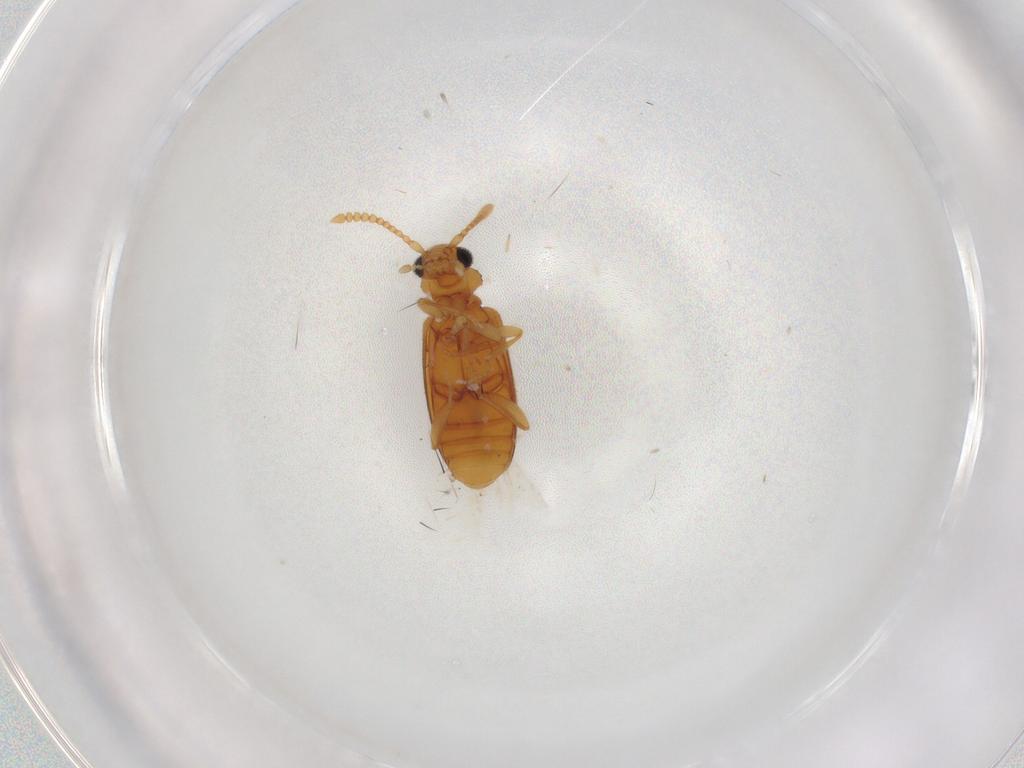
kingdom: Animalia
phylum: Arthropoda
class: Insecta
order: Coleoptera
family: Anthicidae
